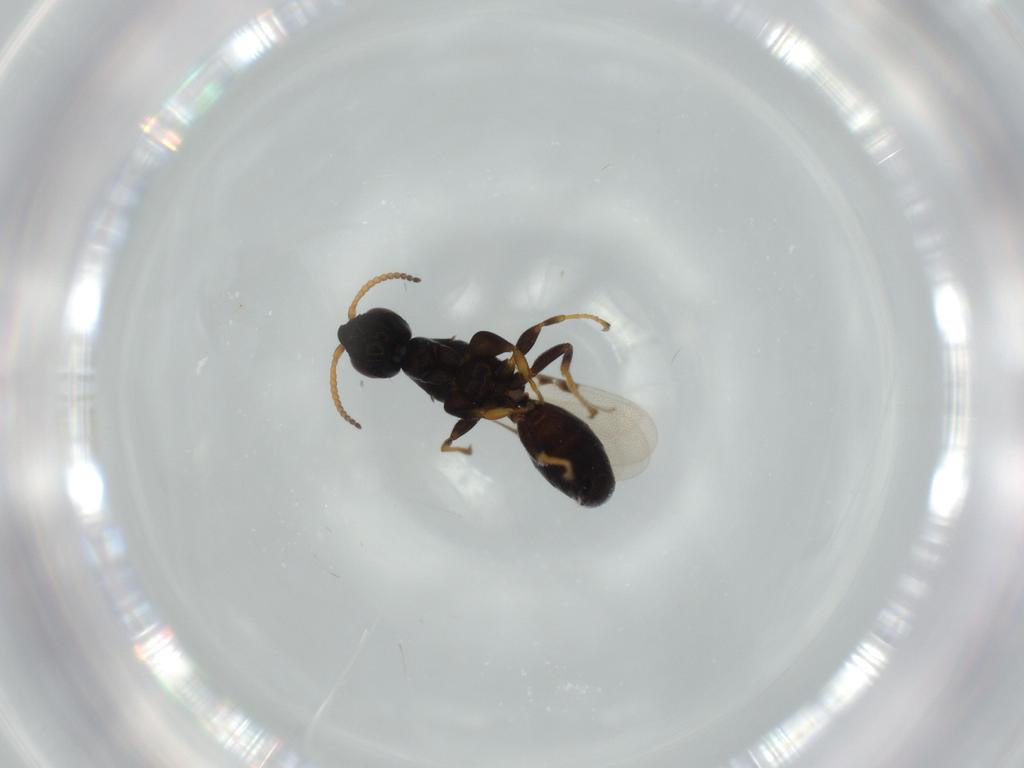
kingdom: Animalia
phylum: Arthropoda
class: Insecta
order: Hymenoptera
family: Bethylidae
